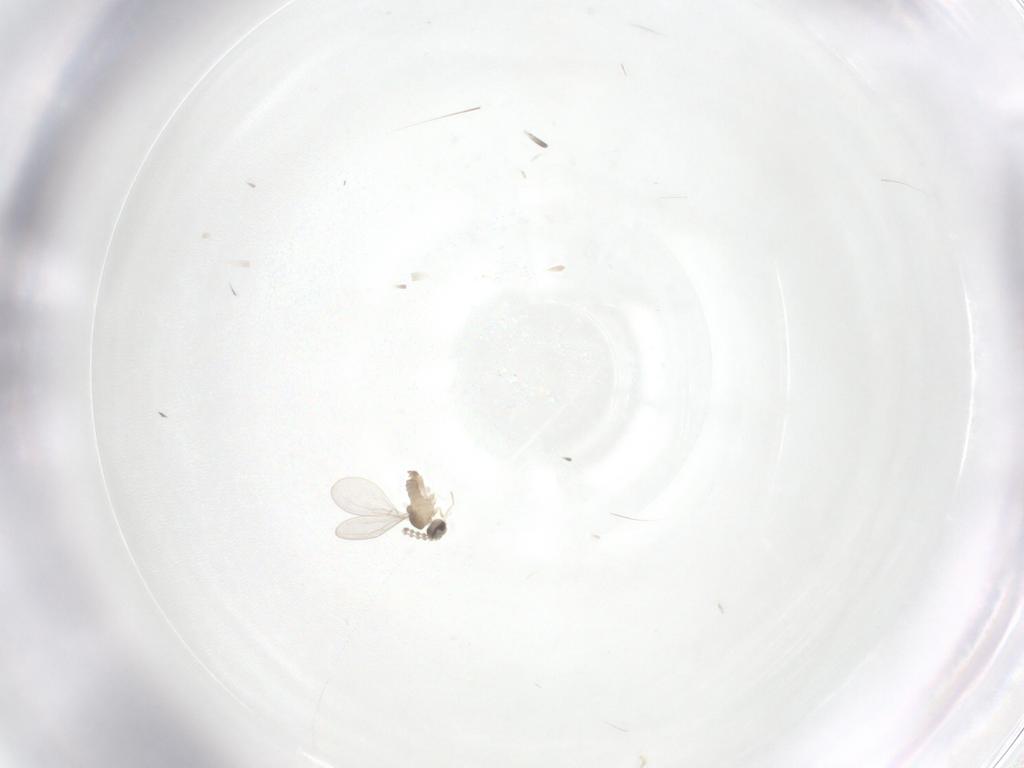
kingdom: Animalia
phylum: Arthropoda
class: Insecta
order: Diptera
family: Cecidomyiidae
